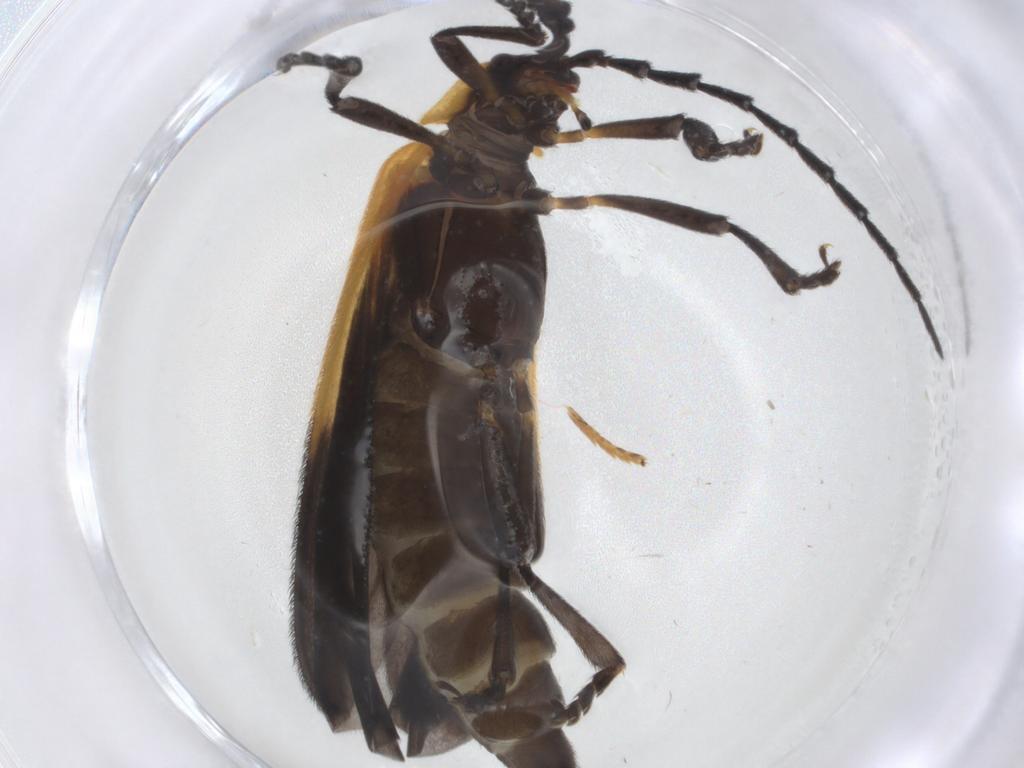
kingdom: Animalia
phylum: Arthropoda
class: Insecta
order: Coleoptera
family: Lycidae
